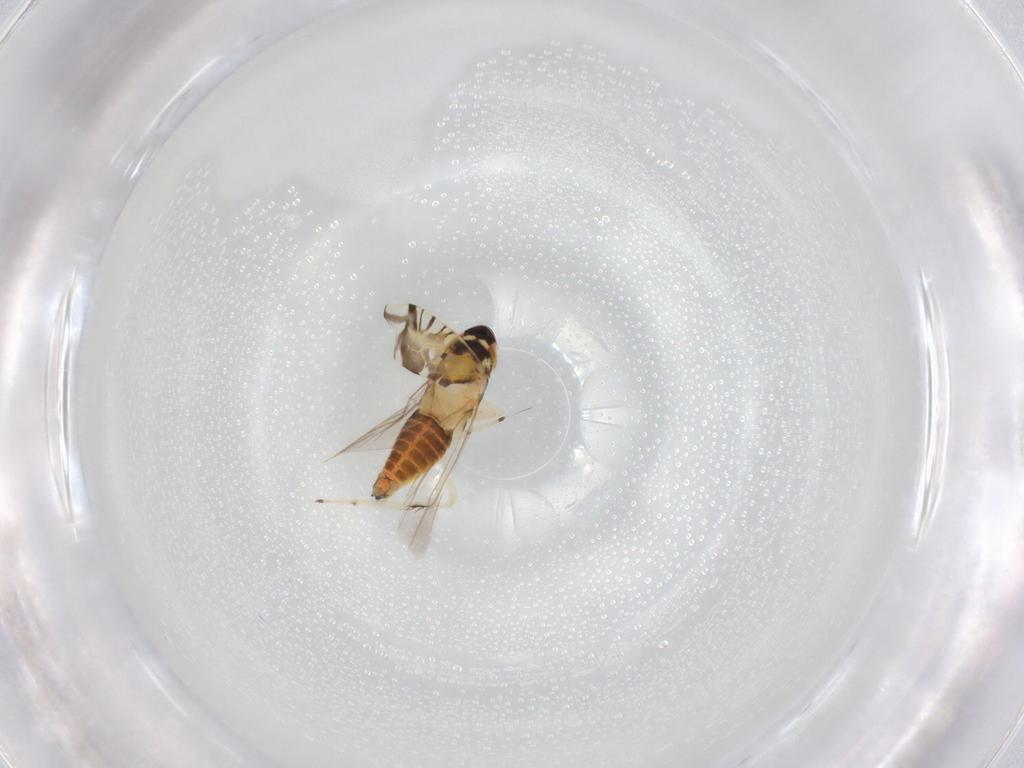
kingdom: Animalia
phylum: Arthropoda
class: Insecta
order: Hemiptera
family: Cicadellidae
